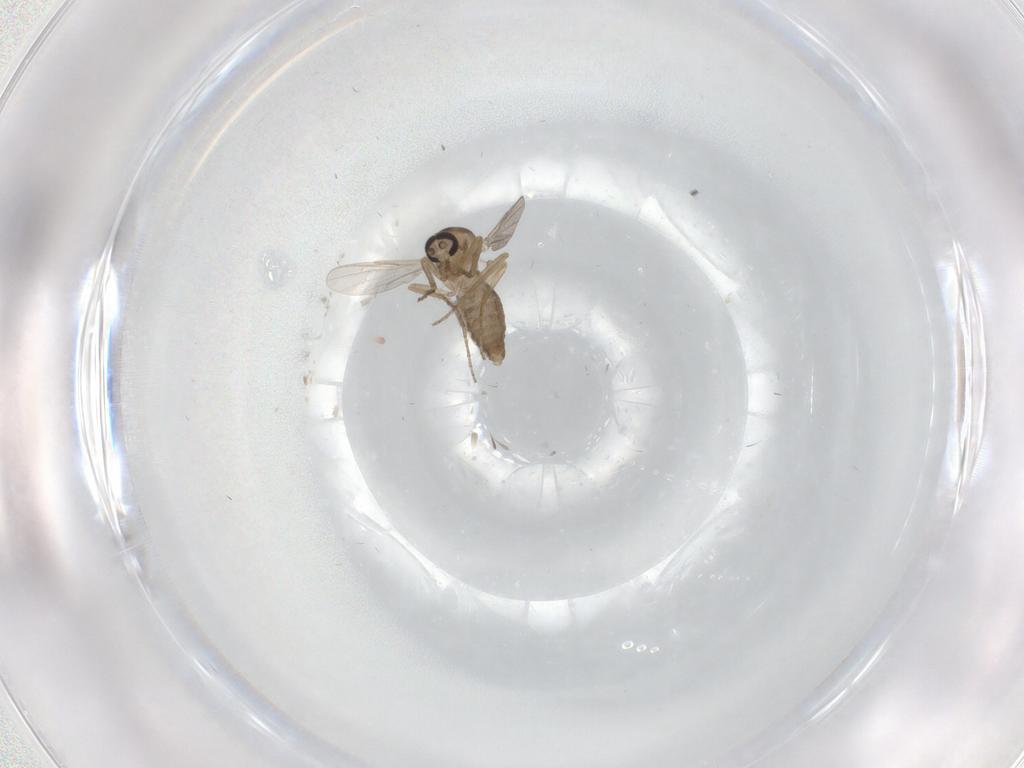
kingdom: Animalia
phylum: Arthropoda
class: Insecta
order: Diptera
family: Ceratopogonidae
